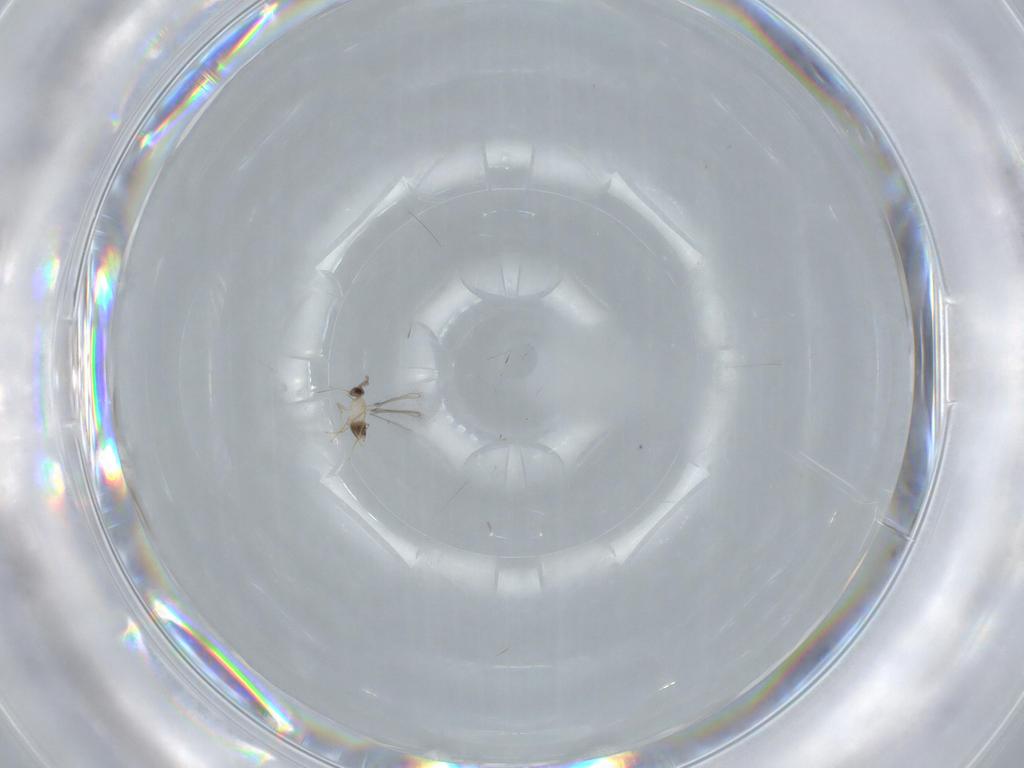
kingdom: Animalia
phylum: Arthropoda
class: Insecta
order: Hymenoptera
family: Mymaridae
